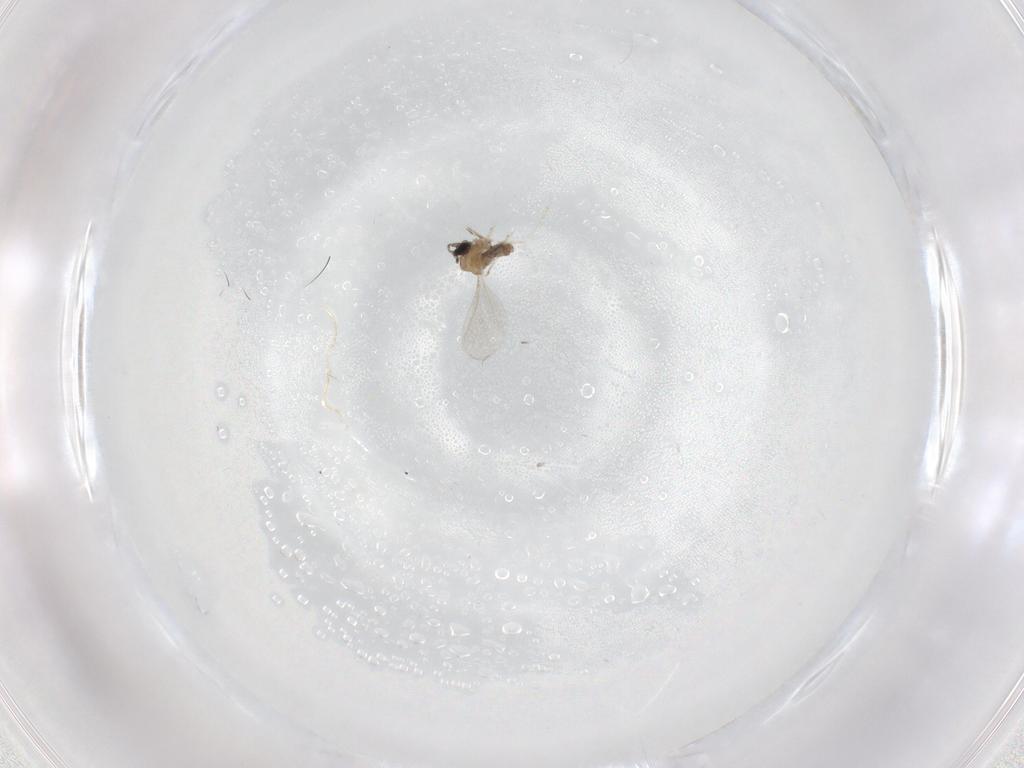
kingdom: Animalia
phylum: Arthropoda
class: Insecta
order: Diptera
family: Cecidomyiidae
